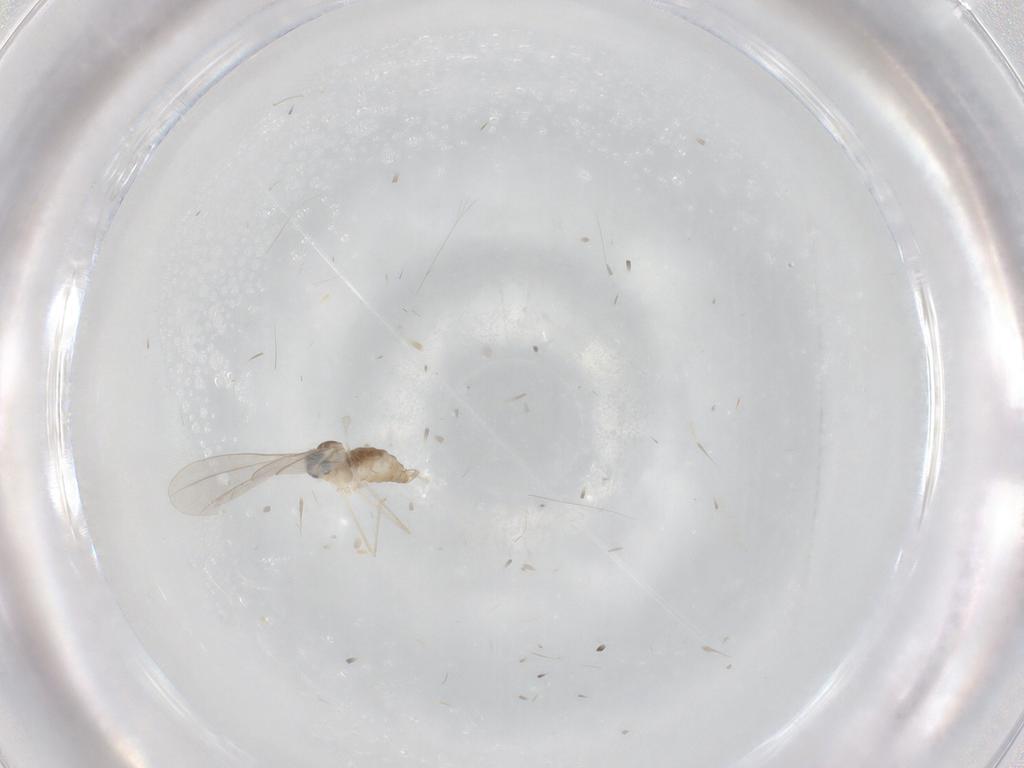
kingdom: Animalia
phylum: Arthropoda
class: Insecta
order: Diptera
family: Cecidomyiidae
